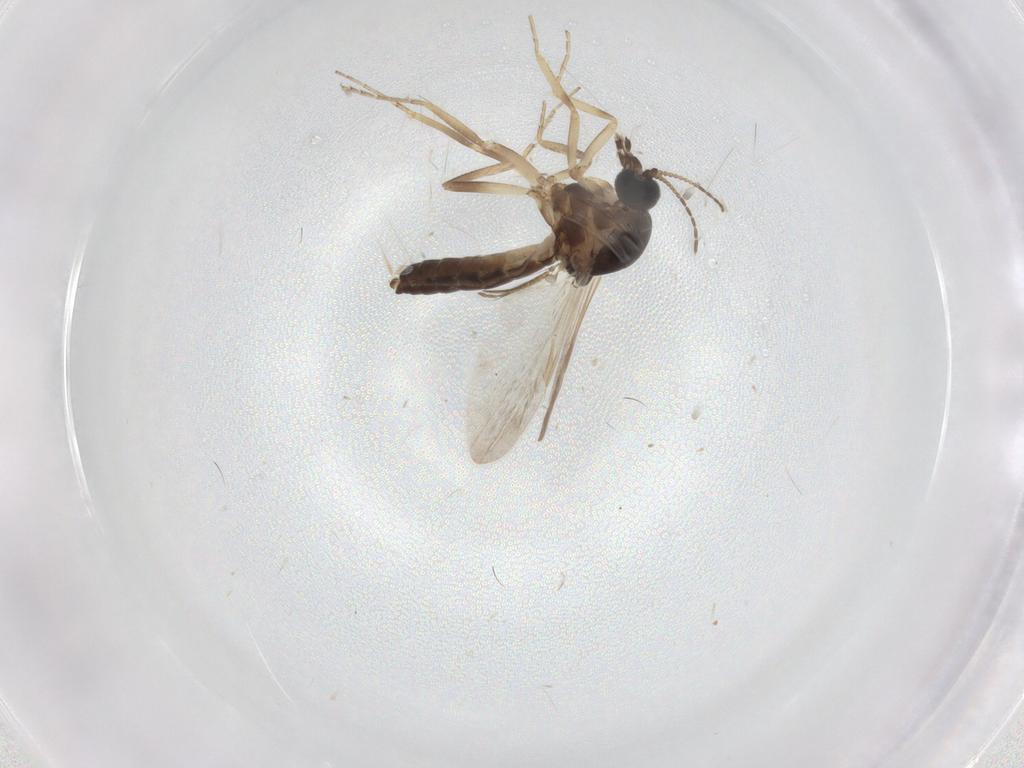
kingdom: Animalia
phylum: Arthropoda
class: Insecta
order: Diptera
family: Ceratopogonidae
